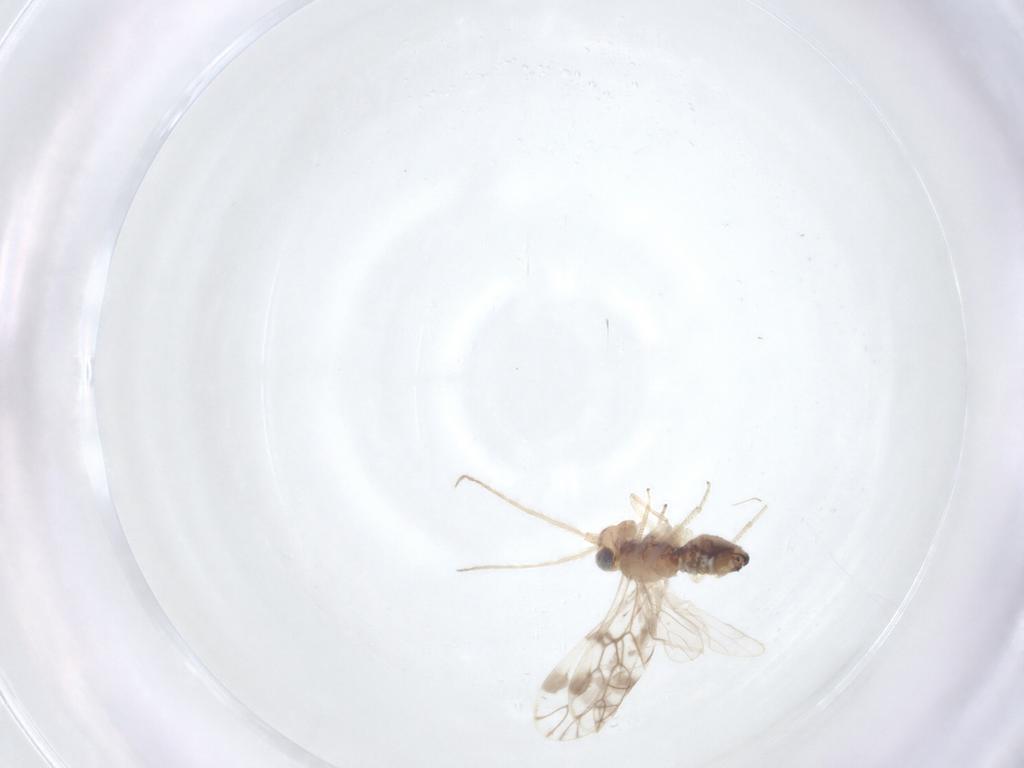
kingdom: Animalia
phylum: Arthropoda
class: Insecta
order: Psocodea
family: Pseudocaeciliidae
